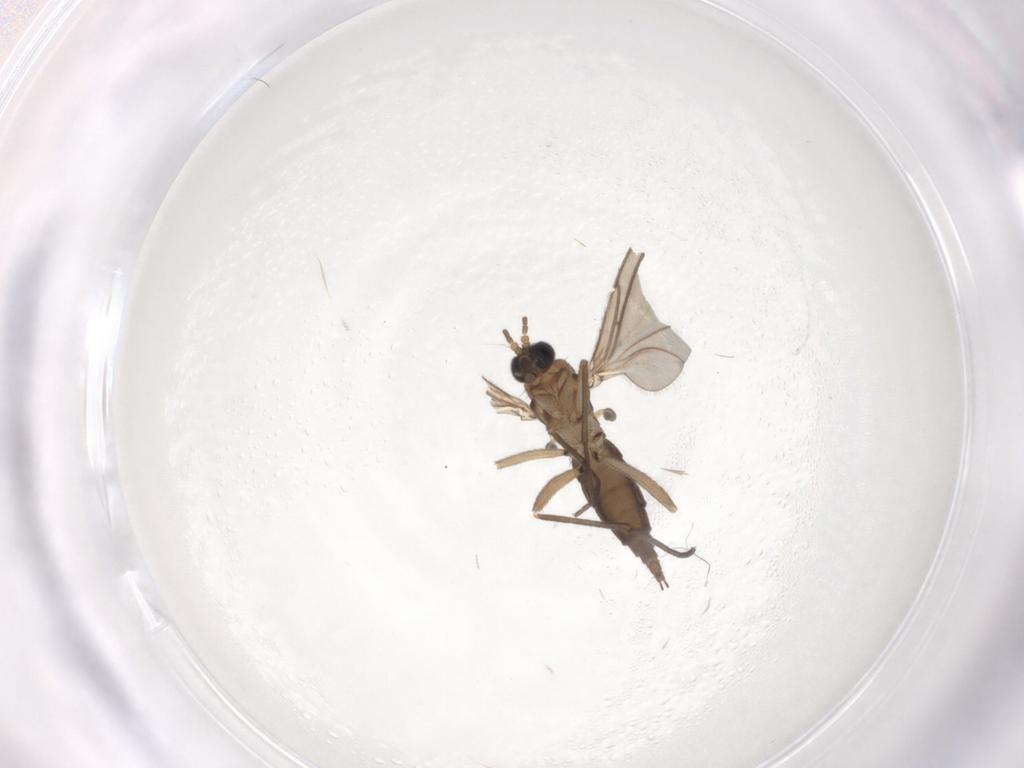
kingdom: Animalia
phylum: Arthropoda
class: Insecta
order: Diptera
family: Sciaridae
